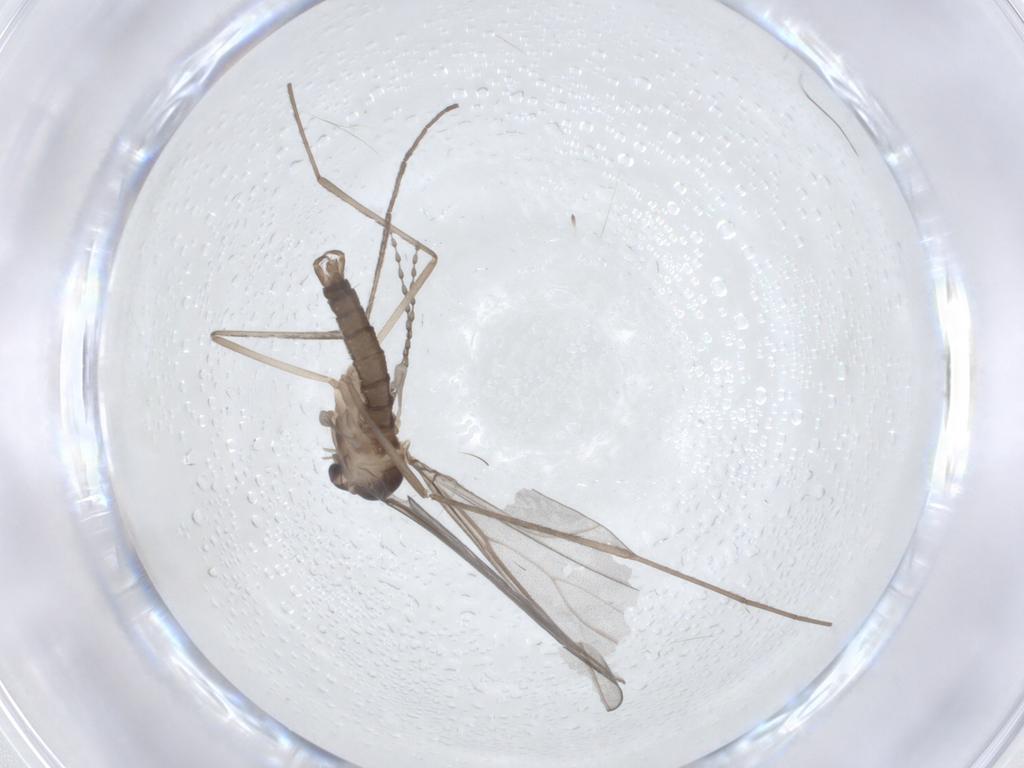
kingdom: Animalia
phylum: Arthropoda
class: Insecta
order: Diptera
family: Cecidomyiidae
